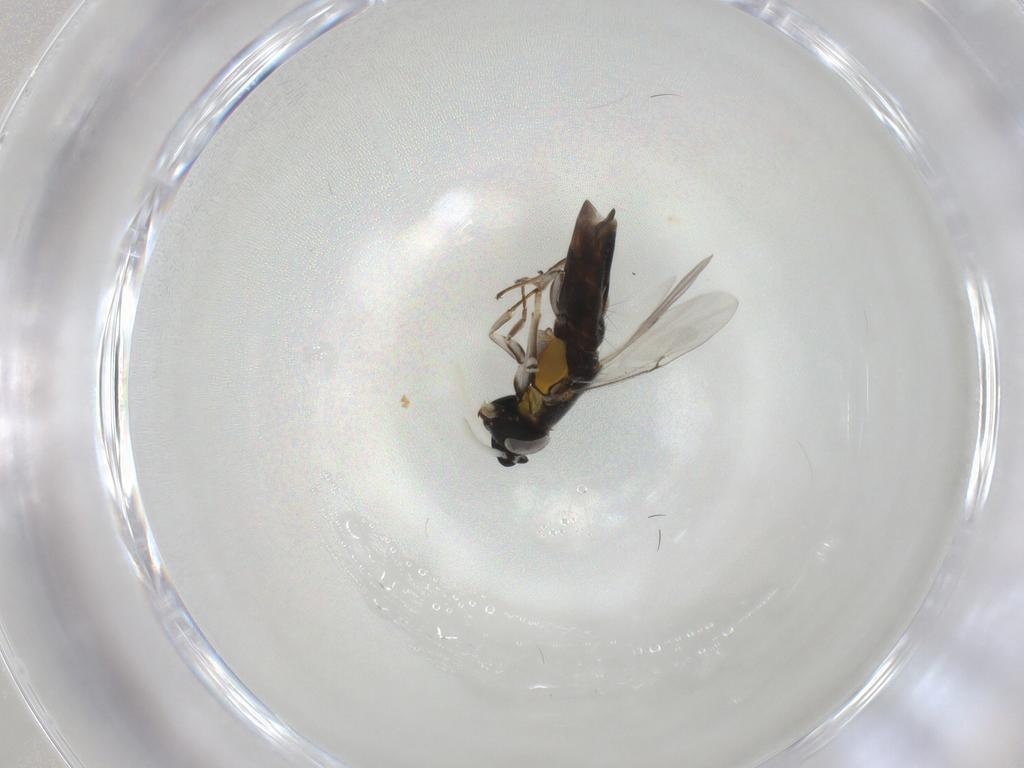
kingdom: Animalia
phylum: Arthropoda
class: Insecta
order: Hymenoptera
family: Diapriidae
